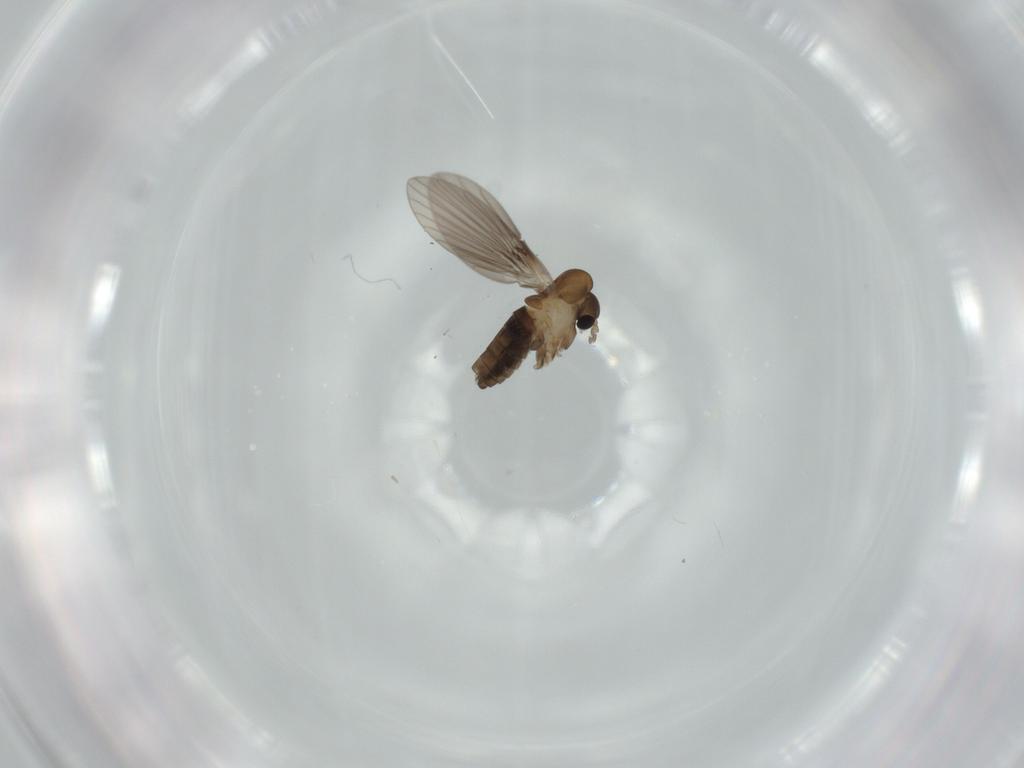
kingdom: Animalia
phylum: Arthropoda
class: Insecta
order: Diptera
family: Psychodidae
